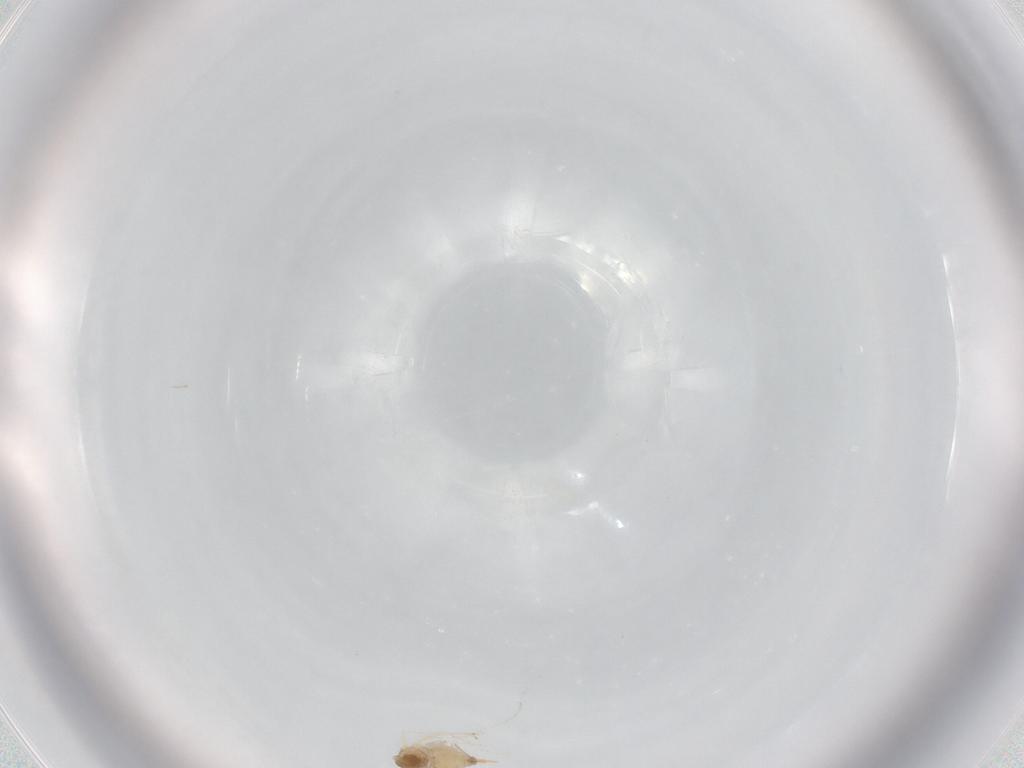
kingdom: Animalia
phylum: Arthropoda
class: Insecta
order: Diptera
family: Cecidomyiidae
